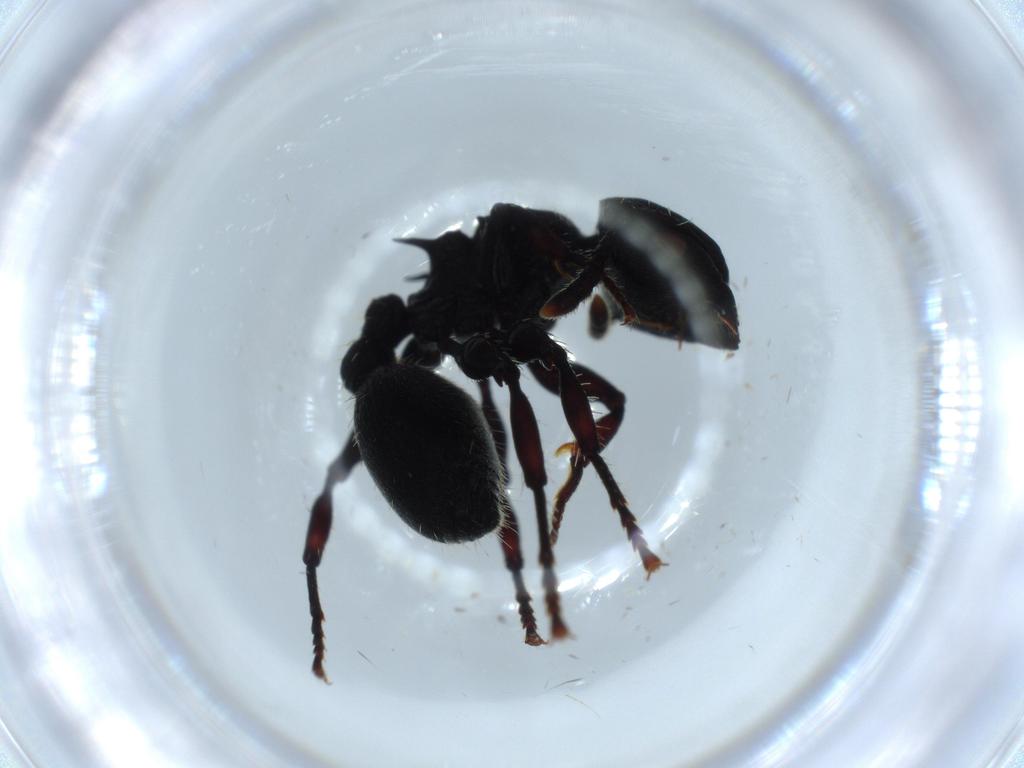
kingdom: Animalia
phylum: Arthropoda
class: Insecta
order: Hymenoptera
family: Formicidae
